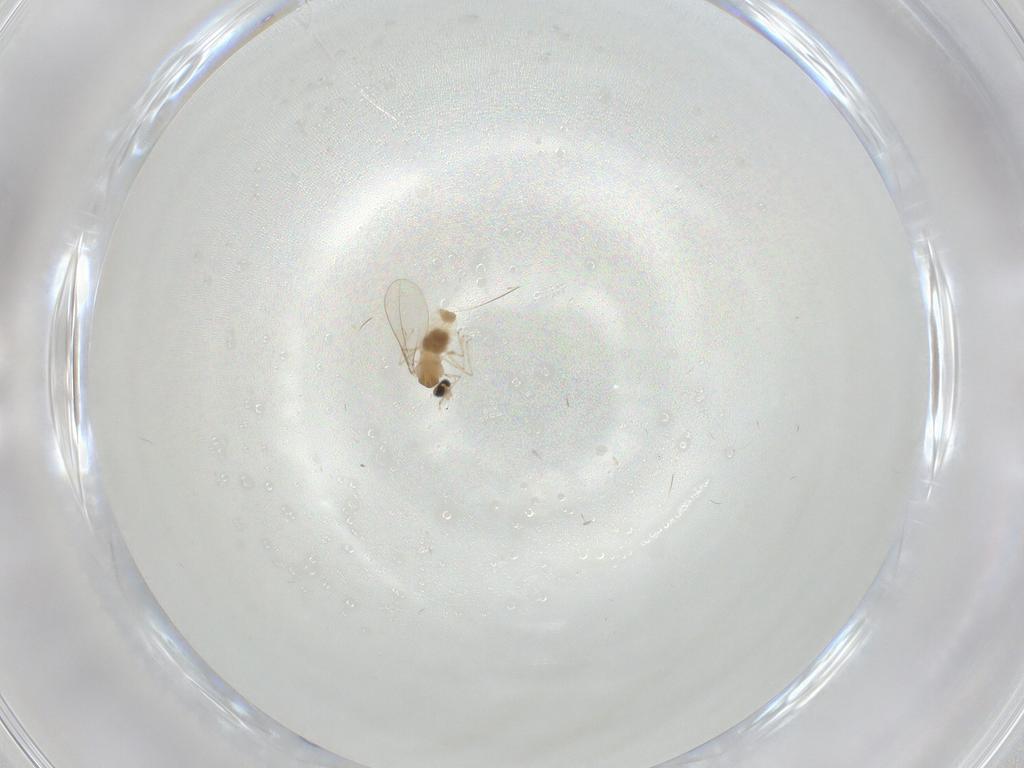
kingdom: Animalia
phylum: Arthropoda
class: Insecta
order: Diptera
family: Cecidomyiidae
